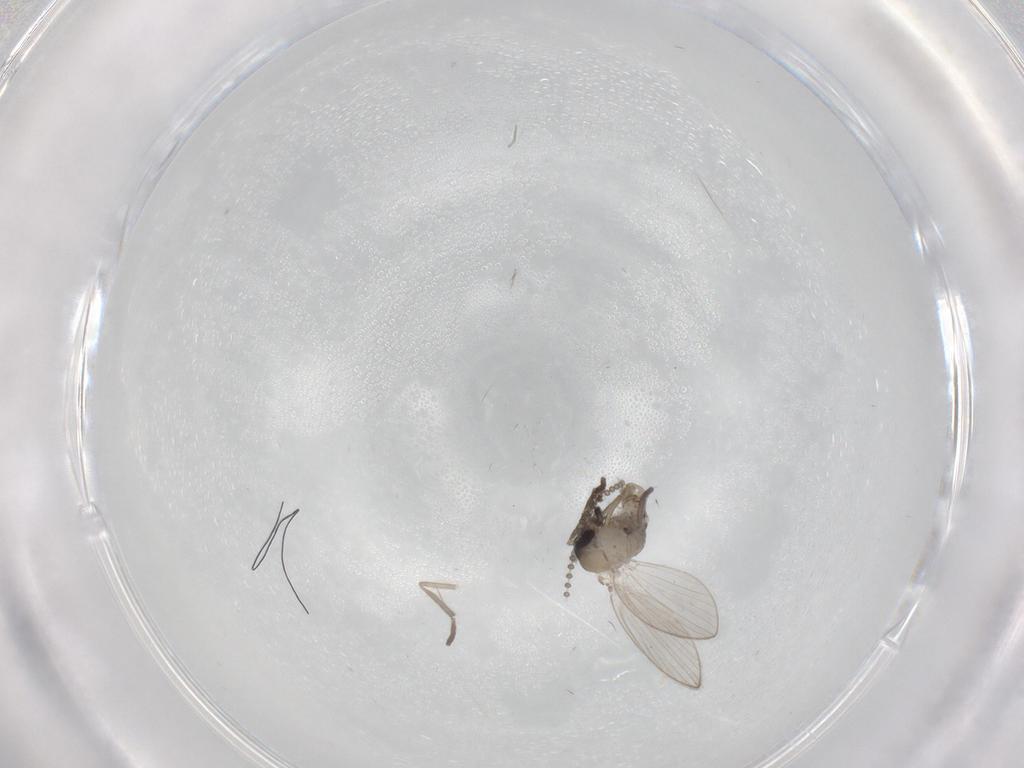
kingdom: Animalia
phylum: Arthropoda
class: Insecta
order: Diptera
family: Psychodidae
